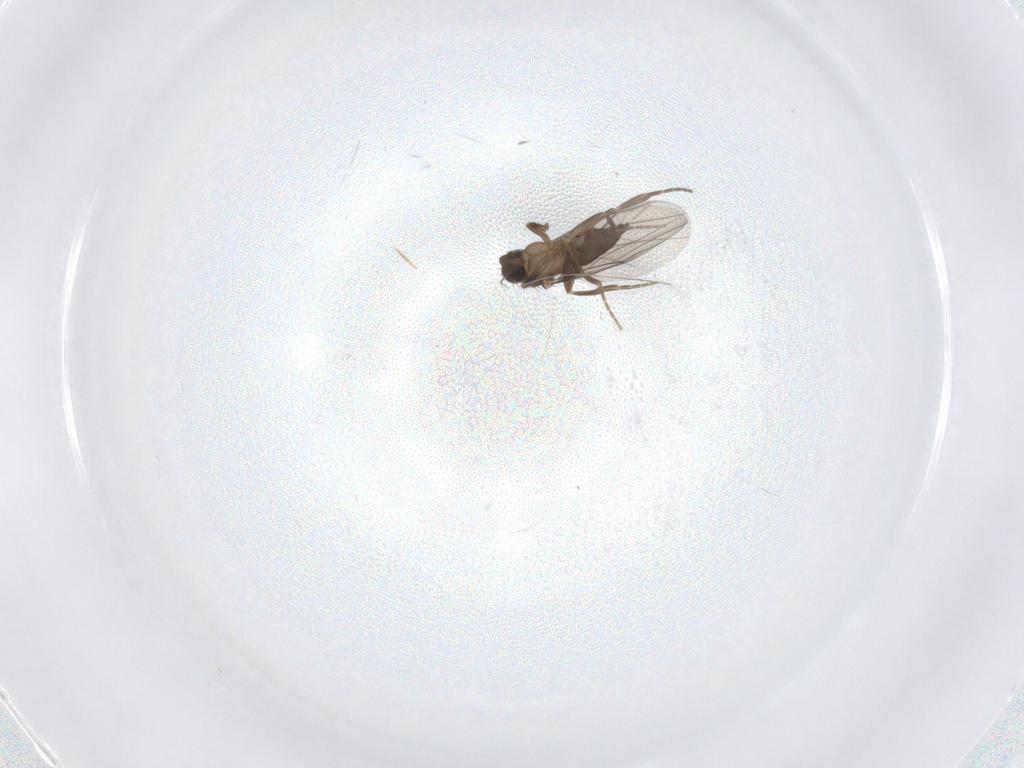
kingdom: Animalia
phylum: Arthropoda
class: Insecta
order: Diptera
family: Phoridae
